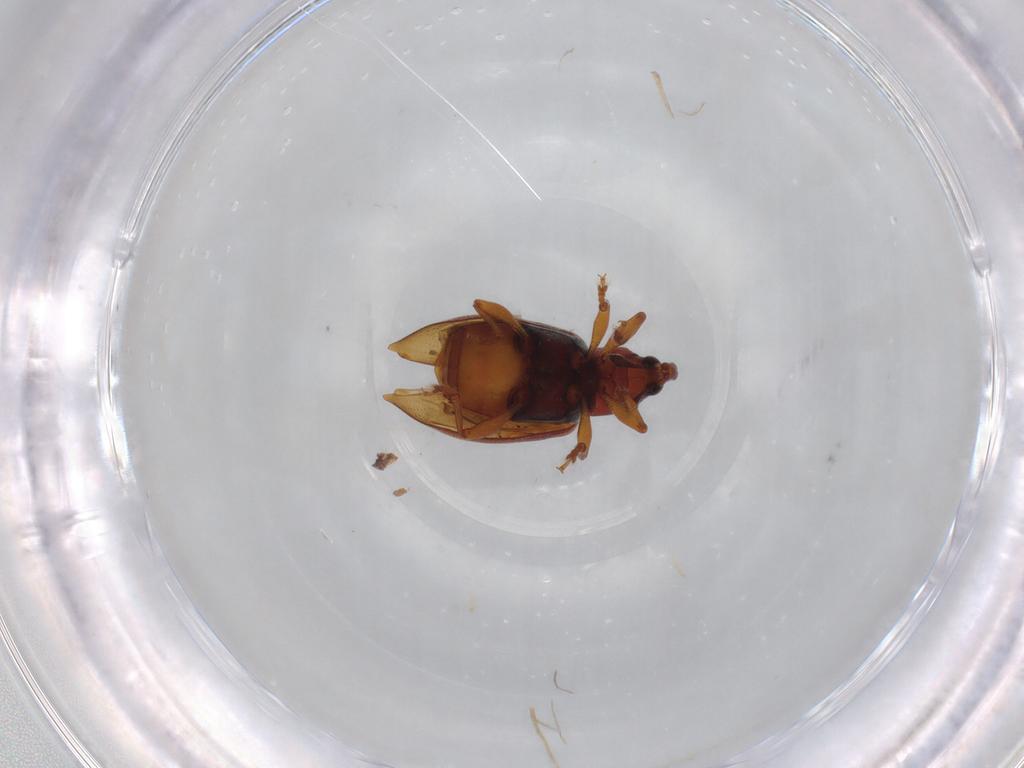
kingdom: Animalia
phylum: Arthropoda
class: Insecta
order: Coleoptera
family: Curculionidae
